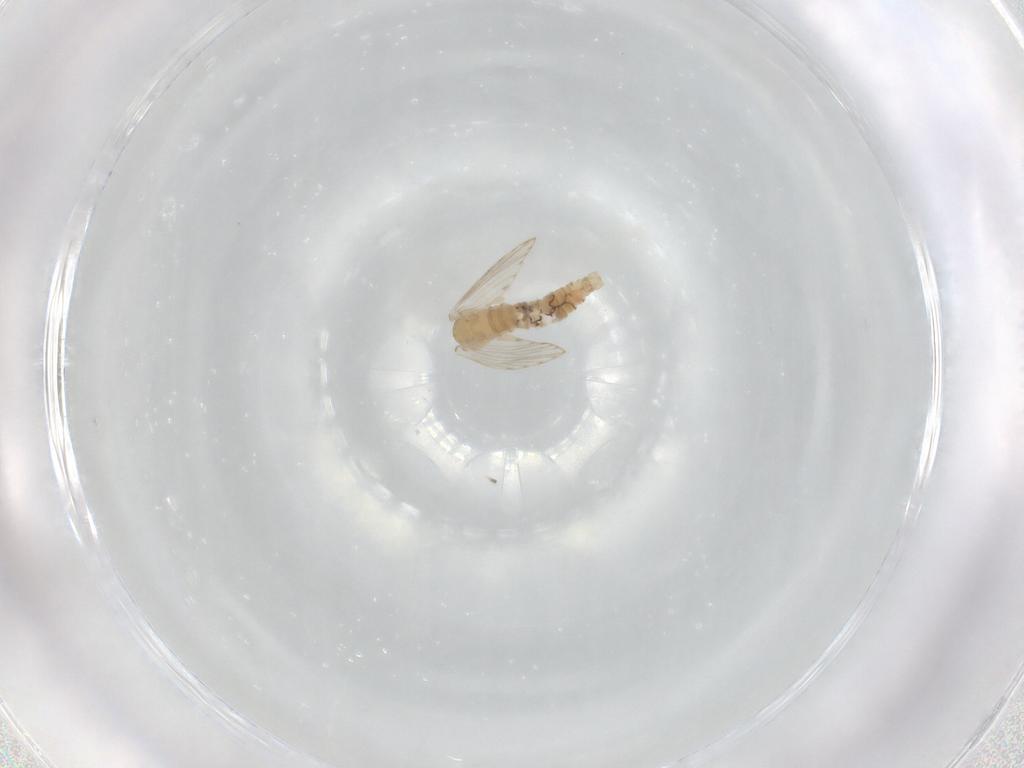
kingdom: Animalia
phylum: Arthropoda
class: Insecta
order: Diptera
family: Psychodidae
